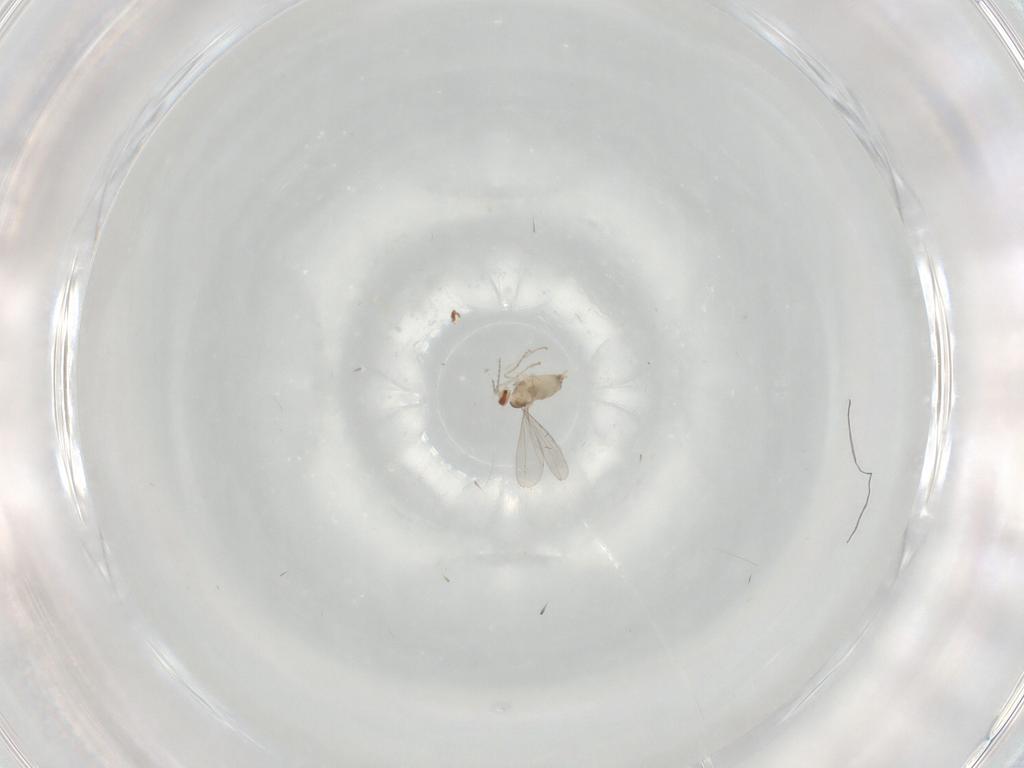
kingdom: Animalia
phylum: Arthropoda
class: Insecta
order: Diptera
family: Cecidomyiidae
